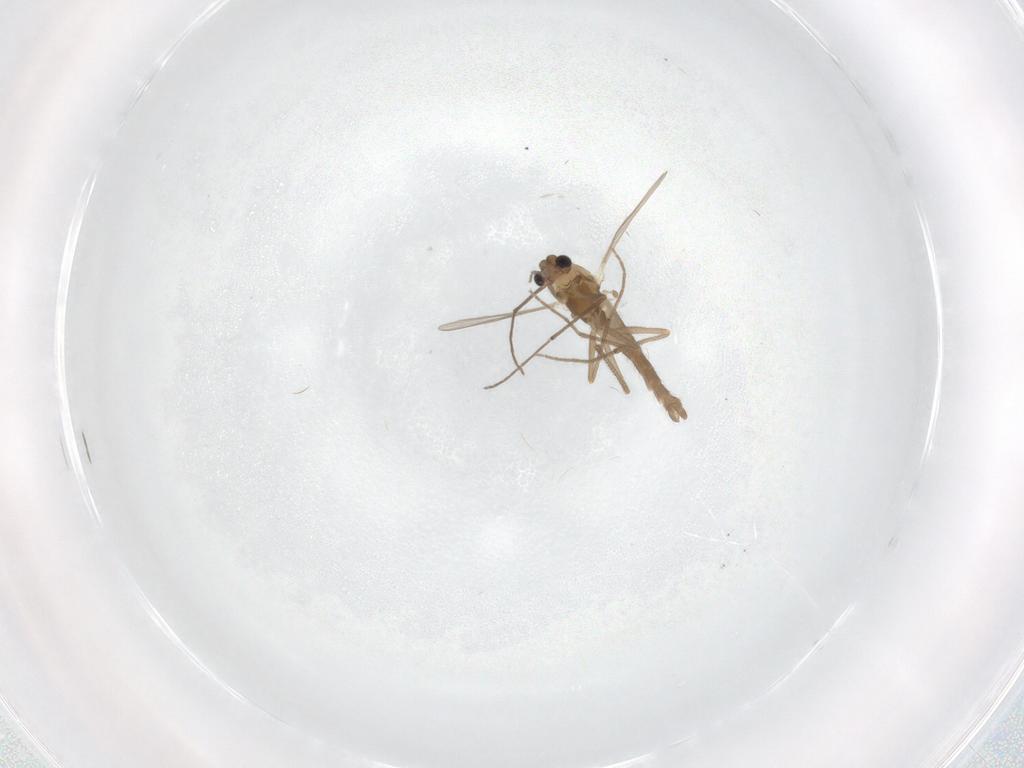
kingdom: Animalia
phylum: Arthropoda
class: Insecta
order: Diptera
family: Chironomidae
